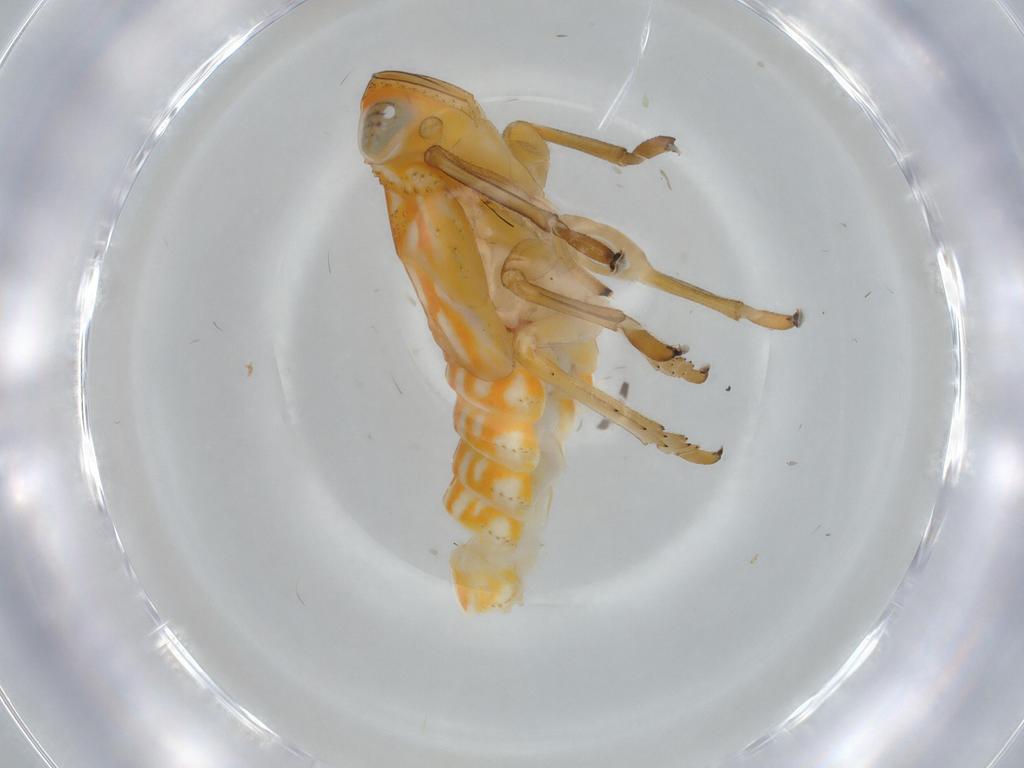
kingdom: Animalia
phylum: Arthropoda
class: Insecta
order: Hemiptera
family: Issidae
